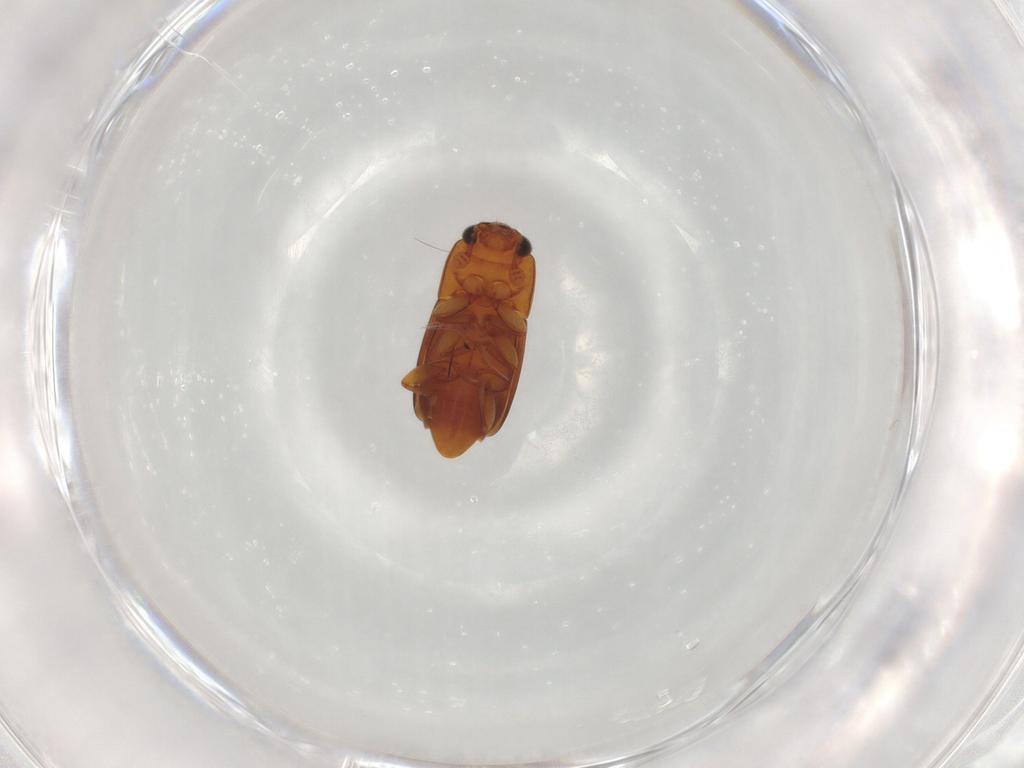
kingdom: Animalia
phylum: Arthropoda
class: Insecta
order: Coleoptera
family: Nitidulidae
